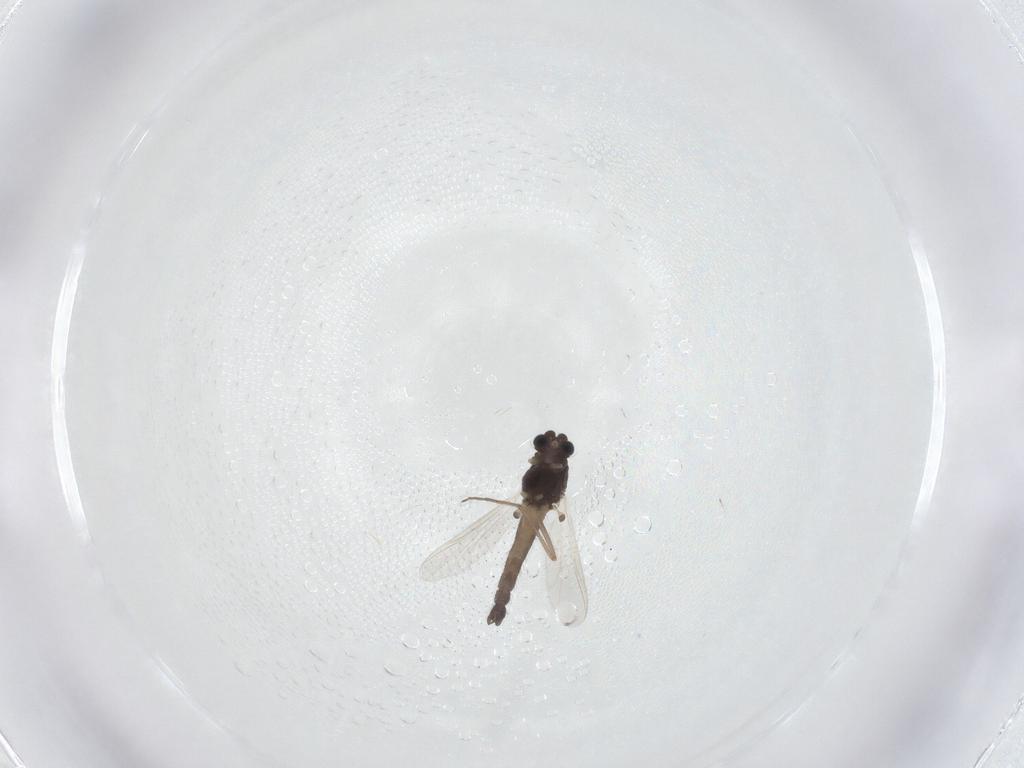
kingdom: Animalia
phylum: Arthropoda
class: Insecta
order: Diptera
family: Chironomidae
